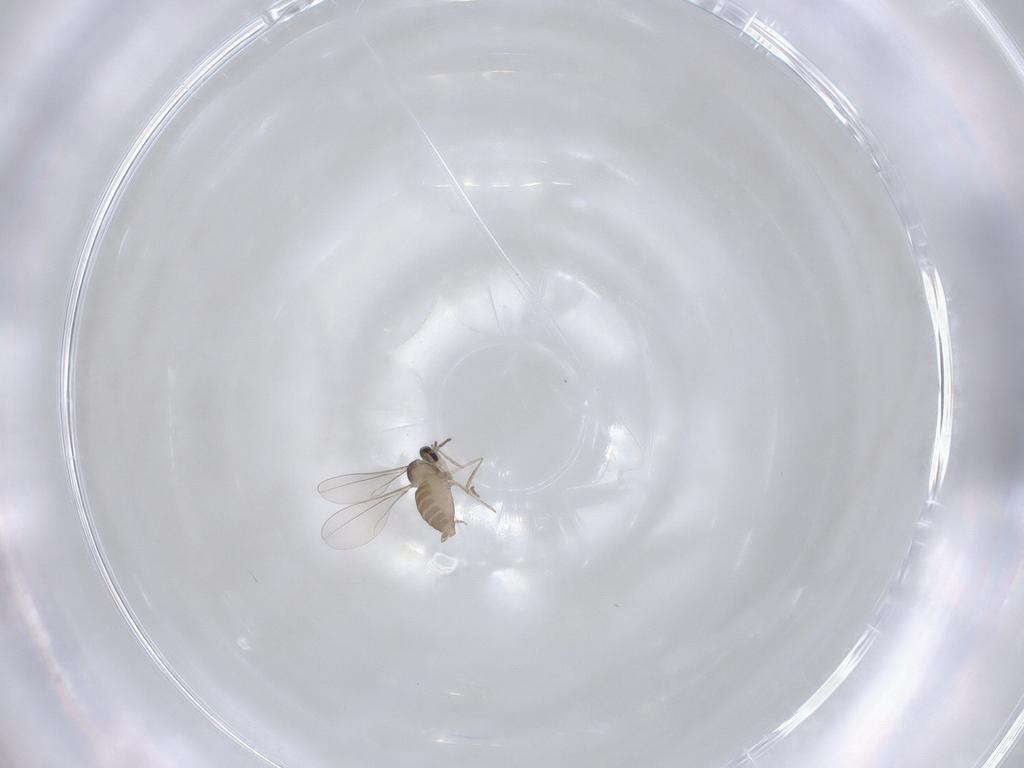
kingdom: Animalia
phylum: Arthropoda
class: Insecta
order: Diptera
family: Cecidomyiidae
